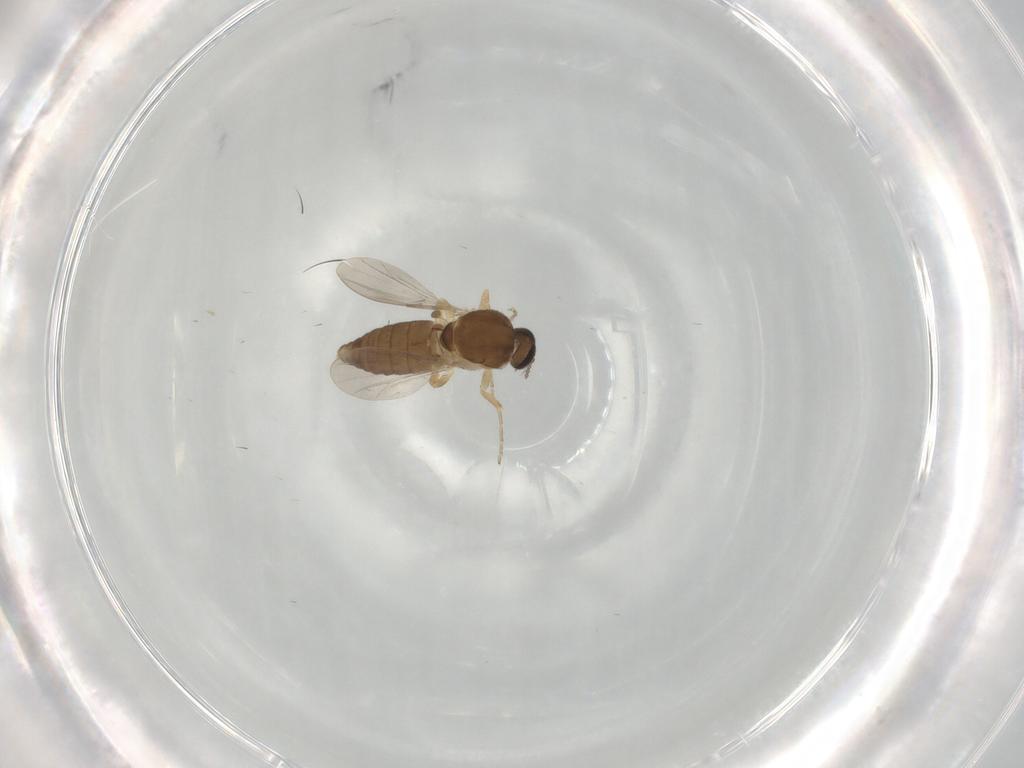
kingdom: Animalia
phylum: Arthropoda
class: Insecta
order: Diptera
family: Ceratopogonidae
